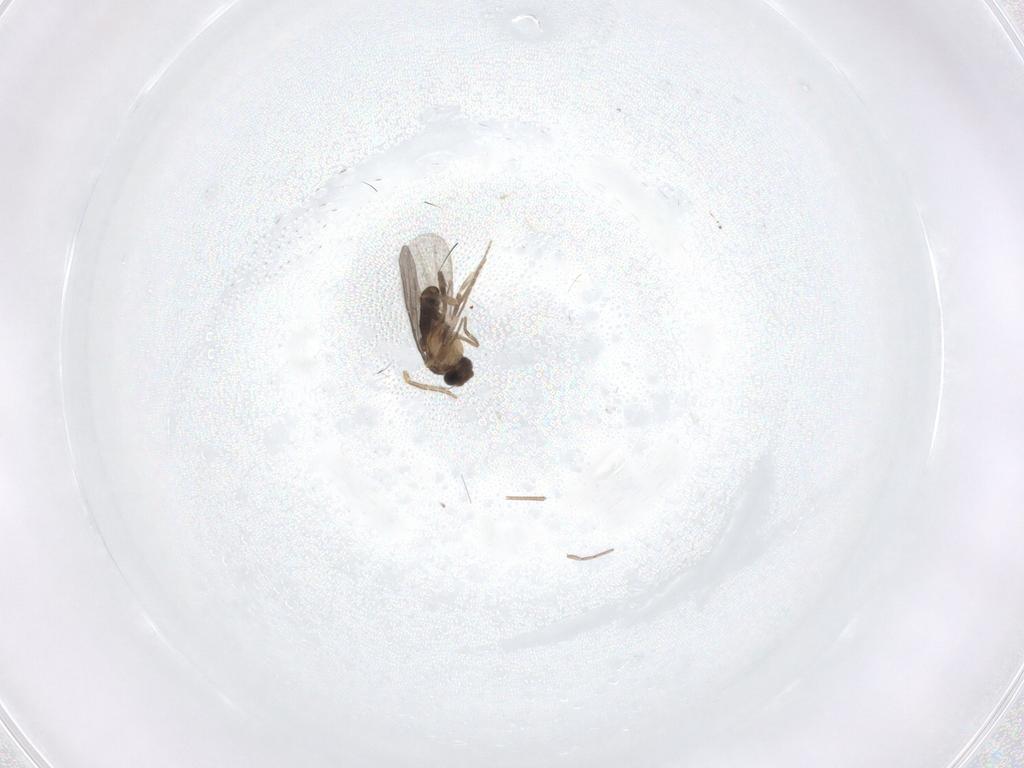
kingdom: Animalia
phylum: Arthropoda
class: Insecta
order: Diptera
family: Cecidomyiidae
